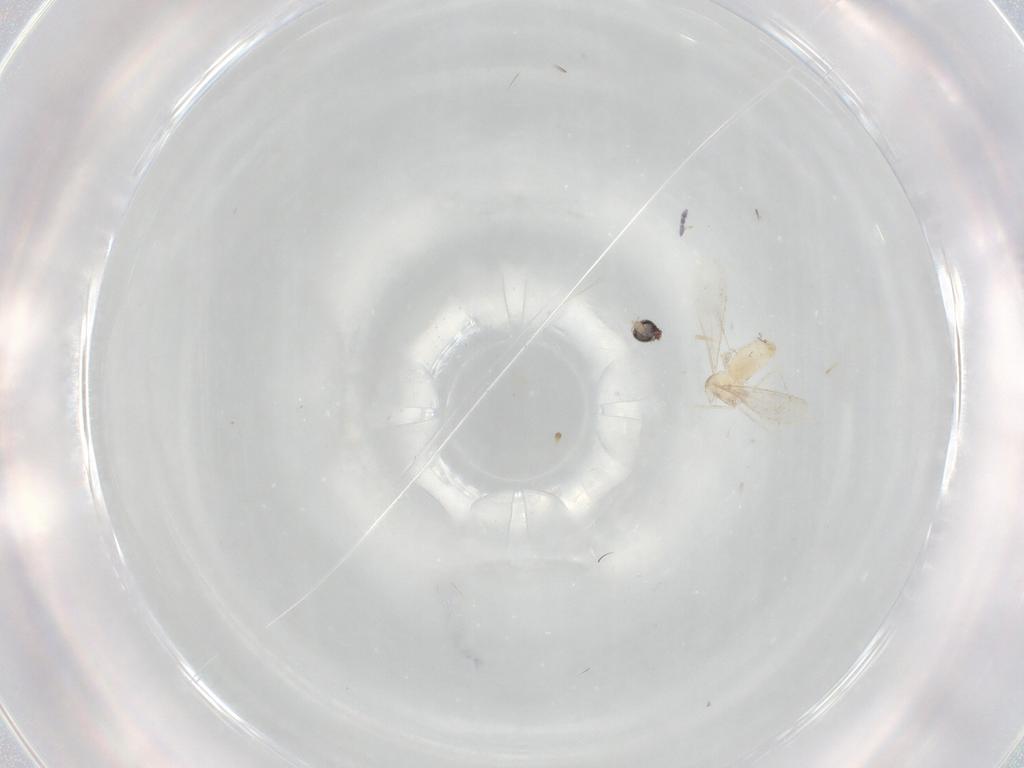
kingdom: Animalia
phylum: Arthropoda
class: Insecta
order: Diptera
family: Cecidomyiidae
